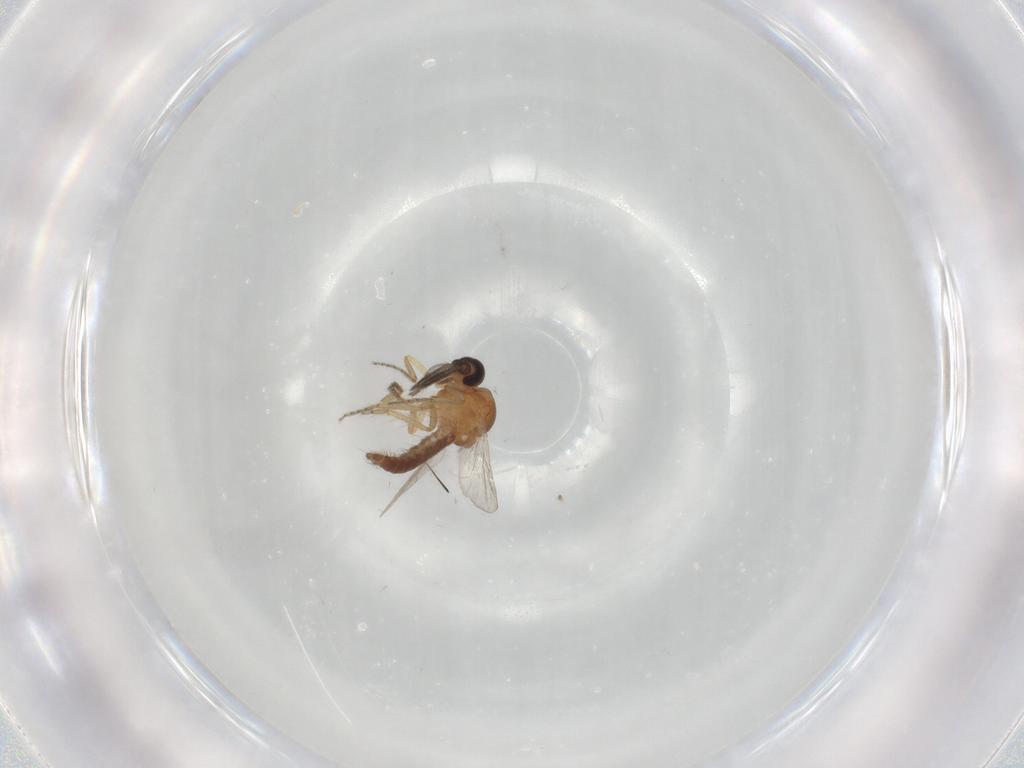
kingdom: Animalia
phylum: Arthropoda
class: Insecta
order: Diptera
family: Ceratopogonidae
